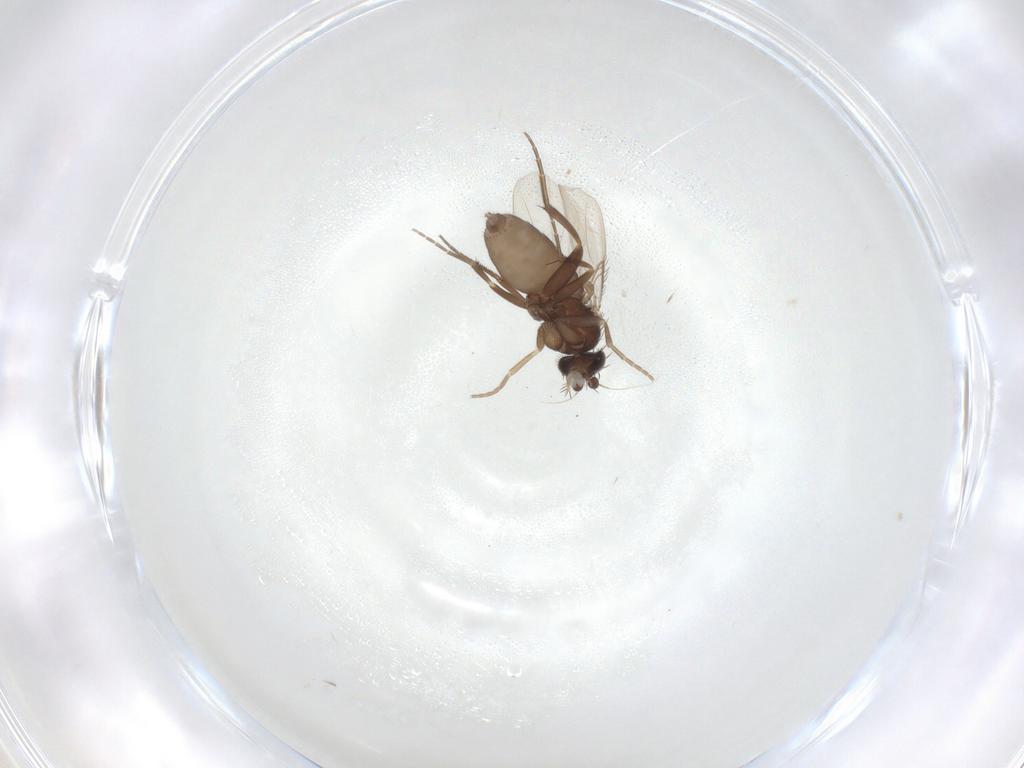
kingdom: Animalia
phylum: Arthropoda
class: Insecta
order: Diptera
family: Phoridae
